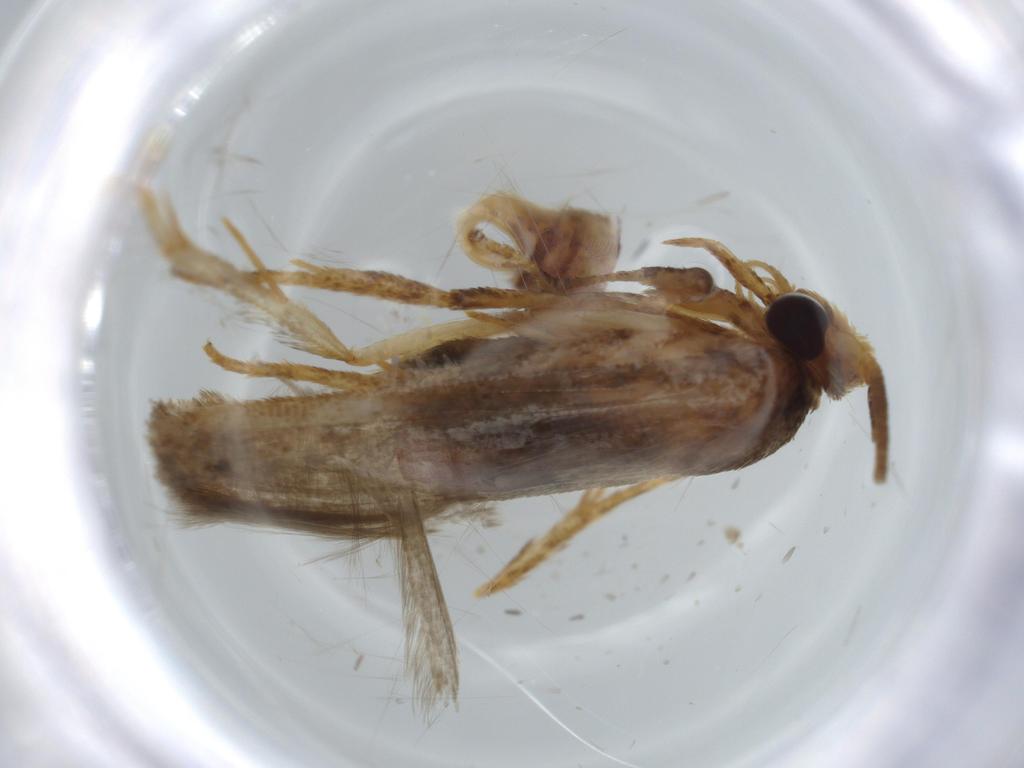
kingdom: Animalia
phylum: Arthropoda
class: Insecta
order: Lepidoptera
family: Blastobasidae
